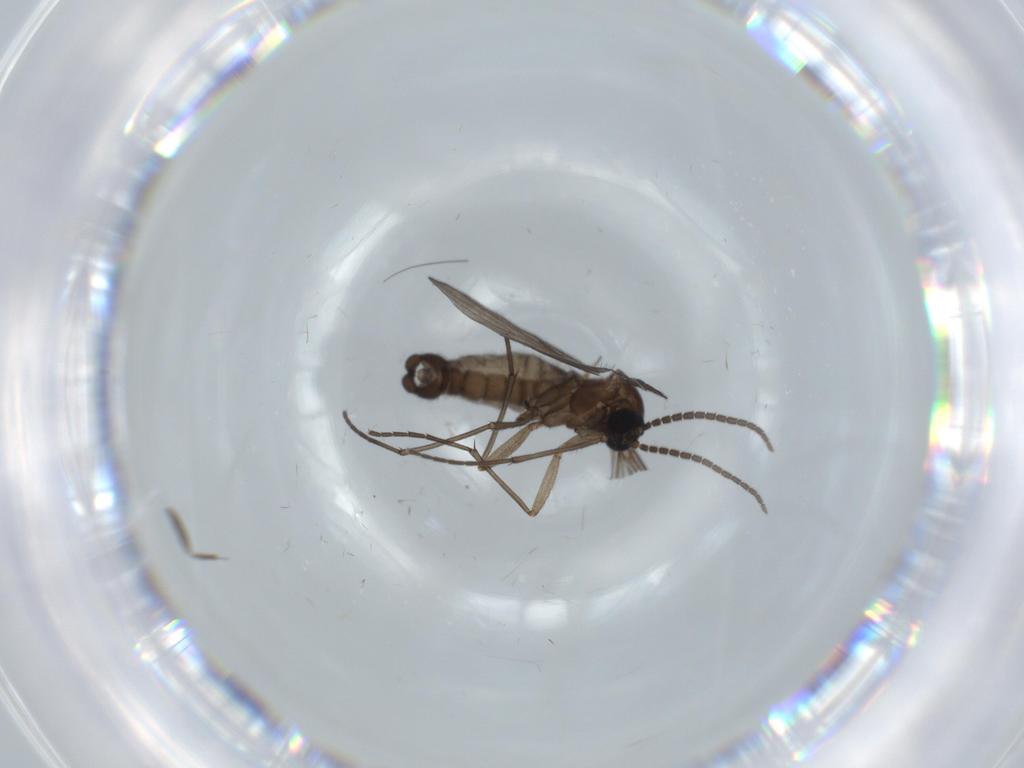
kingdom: Animalia
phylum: Arthropoda
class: Insecta
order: Diptera
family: Sciaridae
